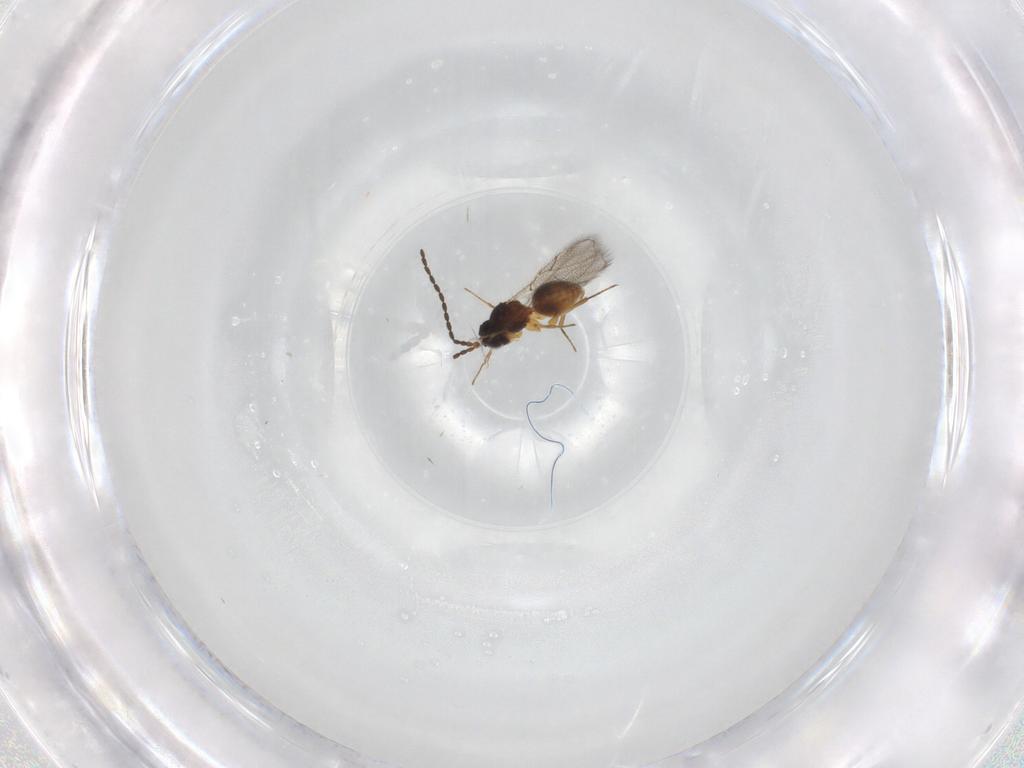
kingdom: Animalia
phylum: Arthropoda
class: Insecta
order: Hymenoptera
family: Figitidae
